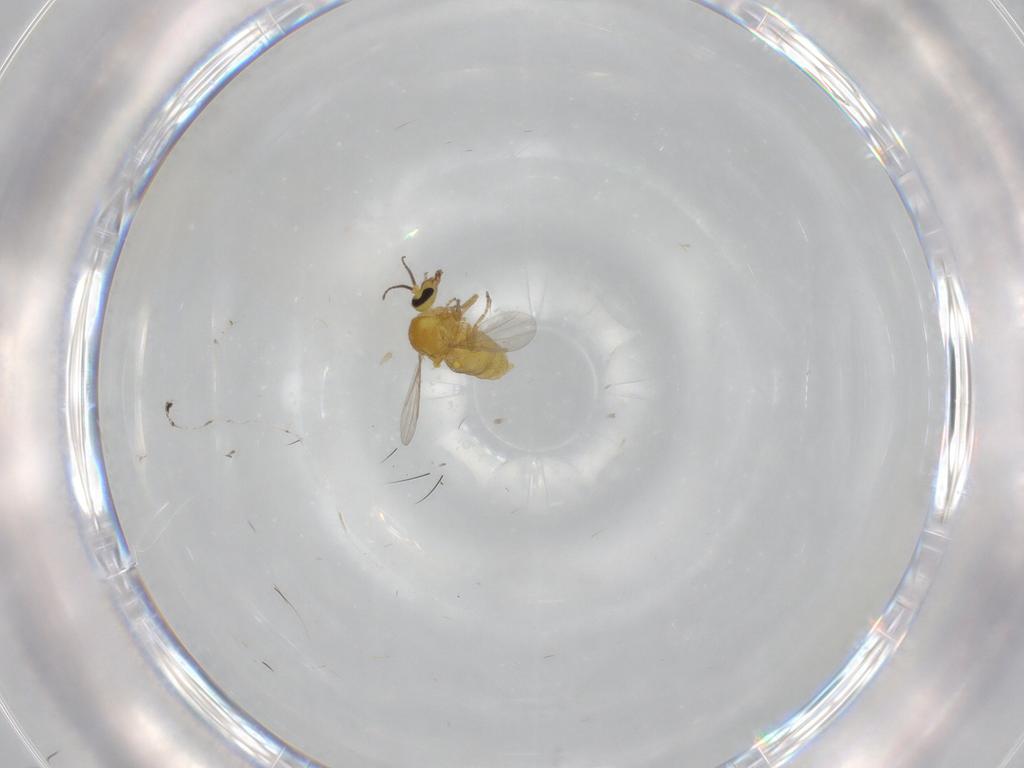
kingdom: Animalia
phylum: Arthropoda
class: Insecta
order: Diptera
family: Ceratopogonidae
